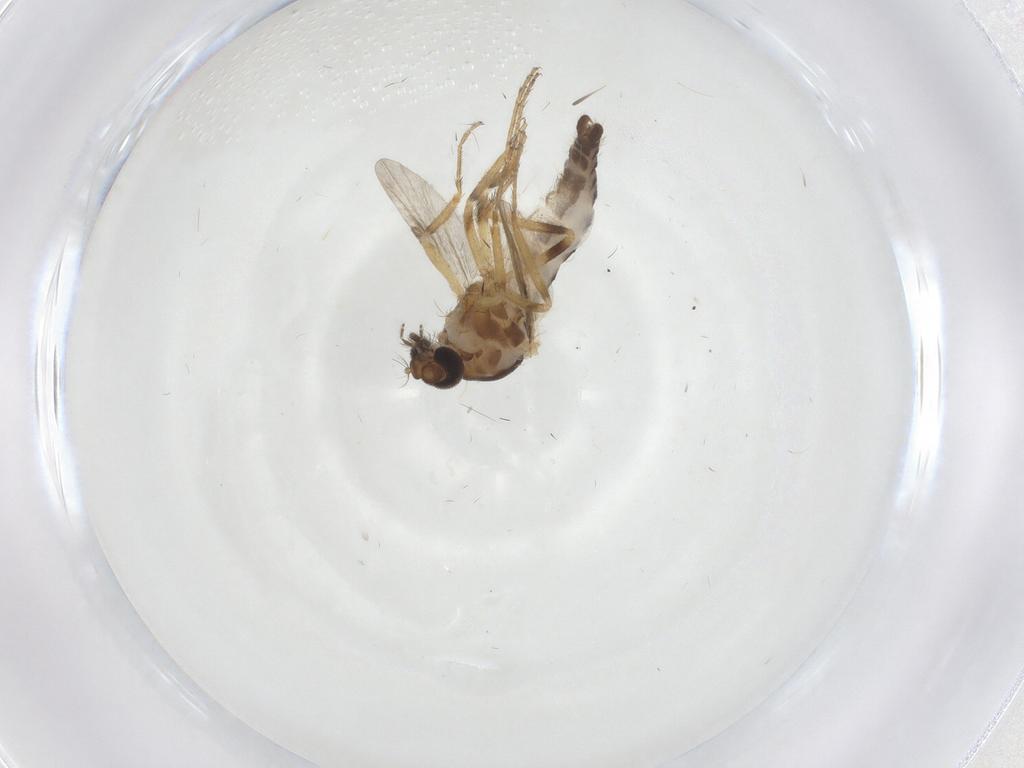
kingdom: Animalia
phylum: Arthropoda
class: Insecta
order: Diptera
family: Ceratopogonidae
